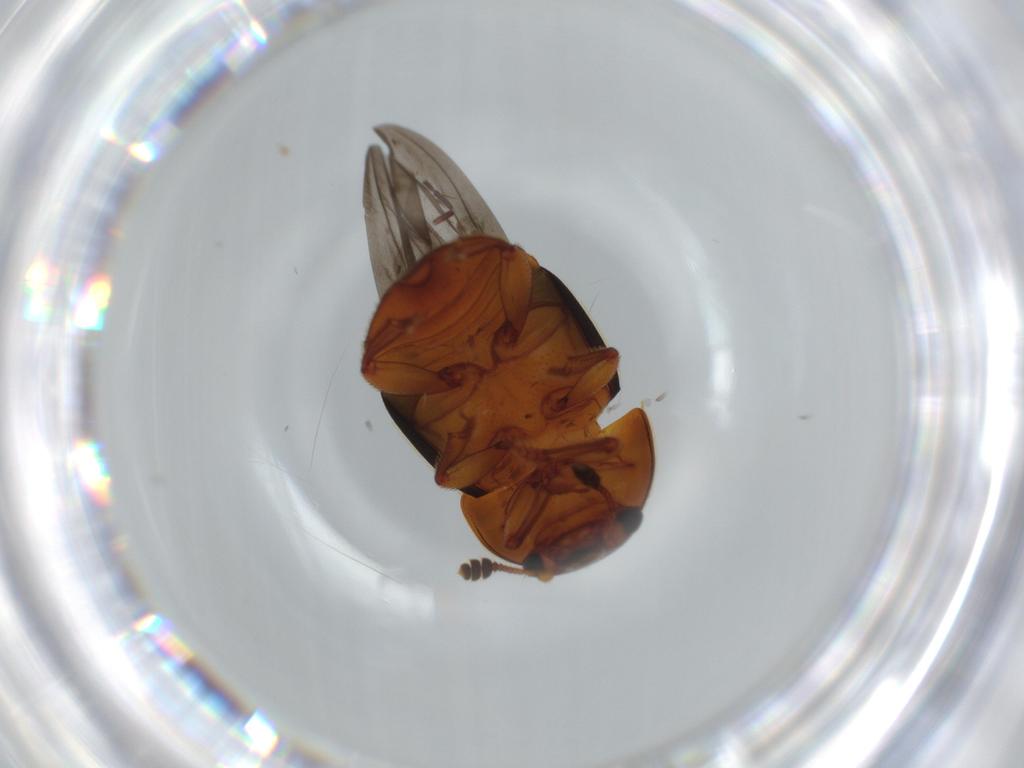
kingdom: Animalia
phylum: Arthropoda
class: Insecta
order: Coleoptera
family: Nitidulidae
